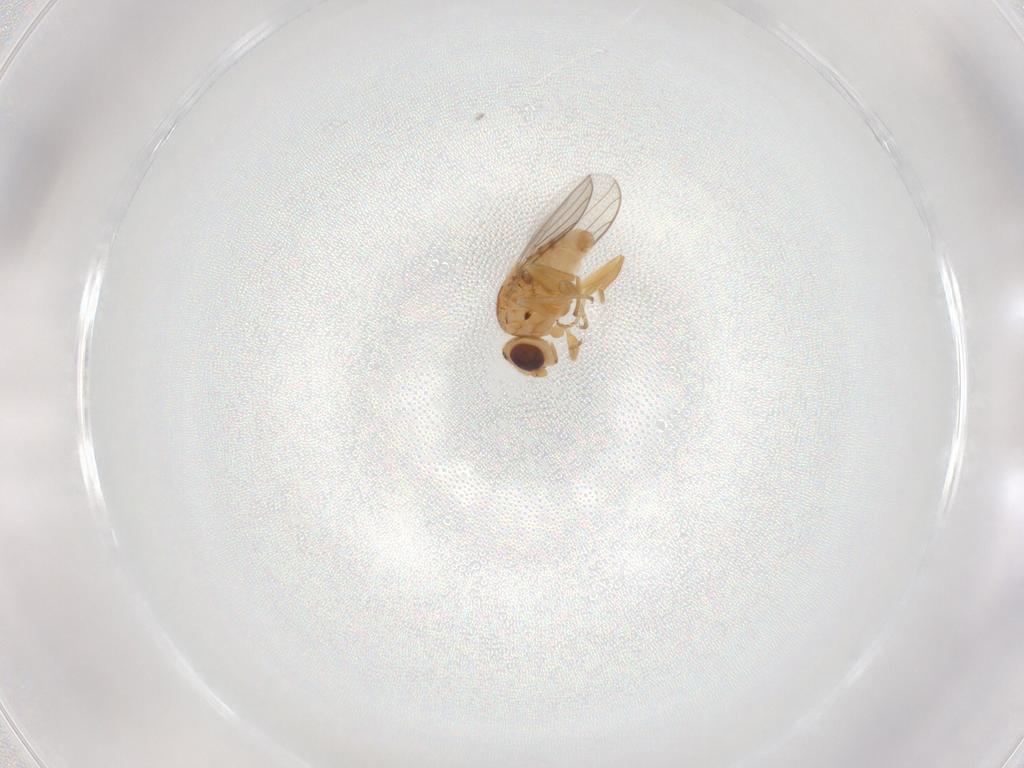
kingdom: Animalia
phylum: Arthropoda
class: Insecta
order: Diptera
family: Chloropidae
